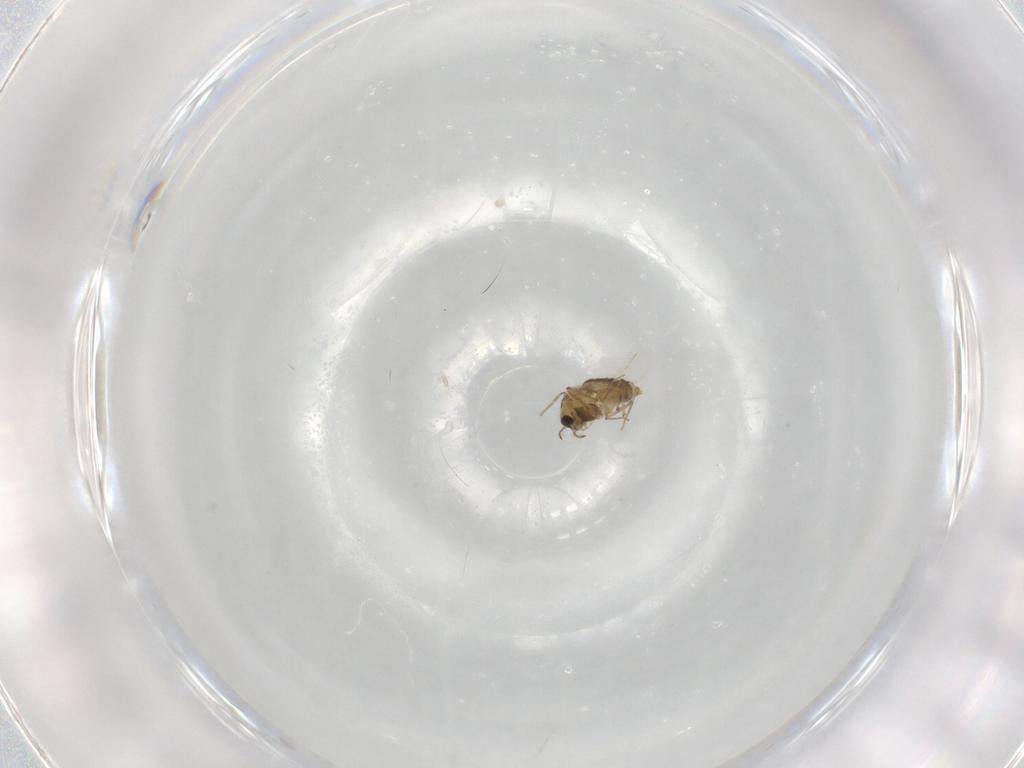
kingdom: Animalia
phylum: Arthropoda
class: Insecta
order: Diptera
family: Chironomidae
